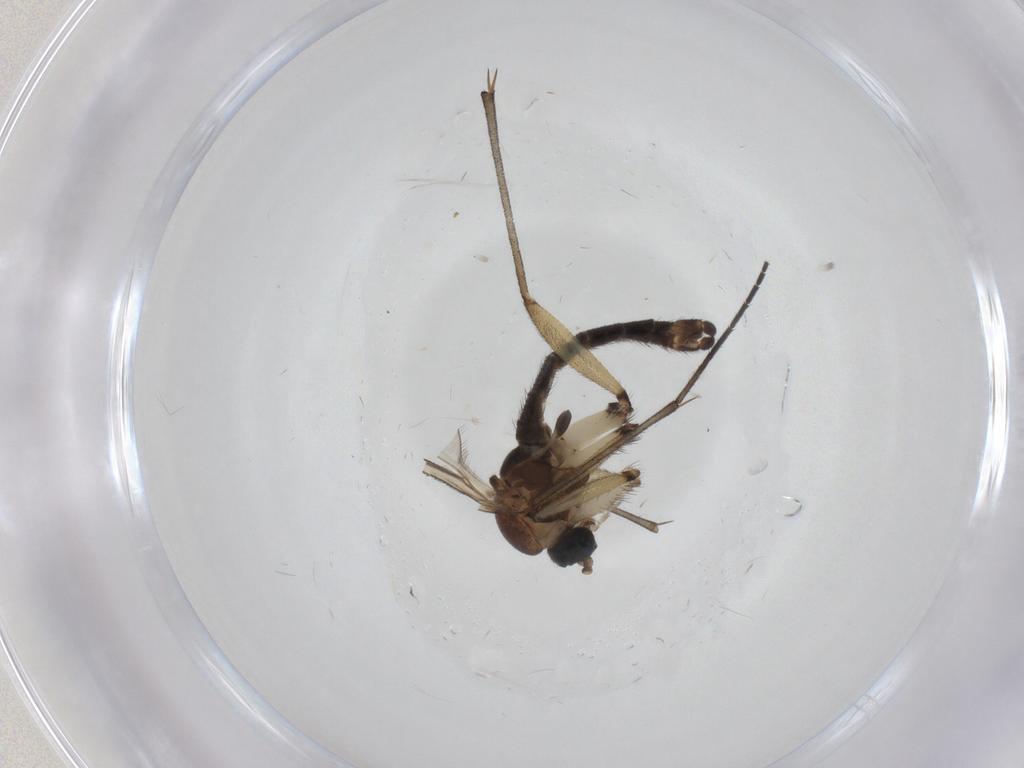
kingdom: Animalia
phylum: Arthropoda
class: Insecta
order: Diptera
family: Sciaridae
